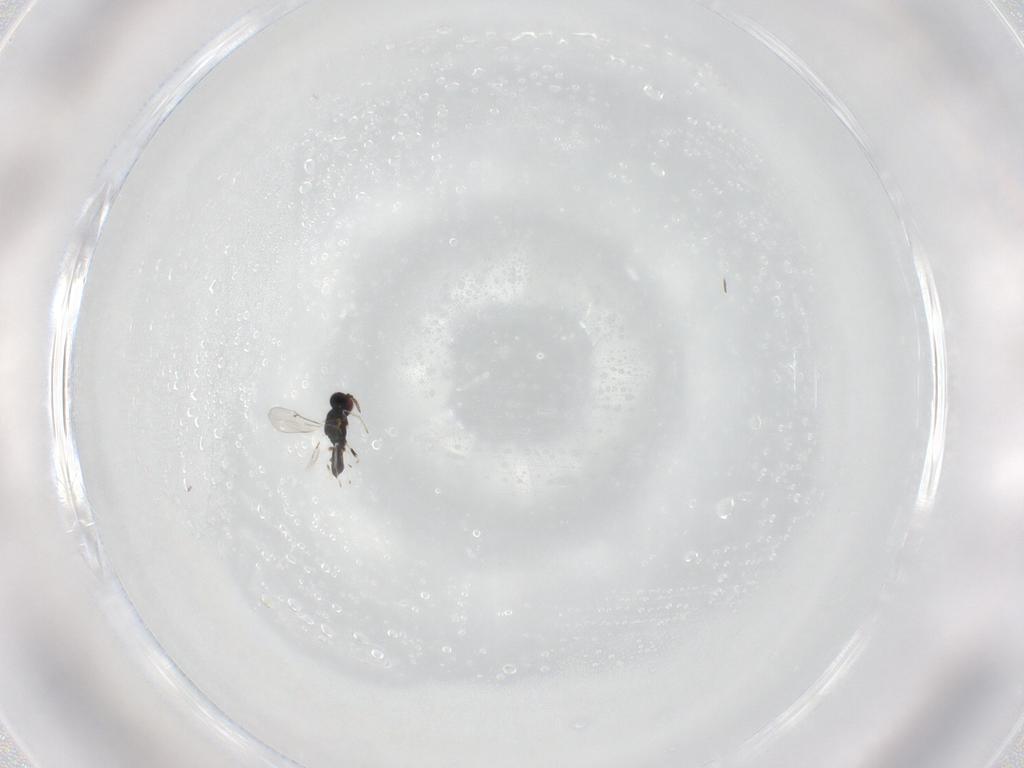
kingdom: Animalia
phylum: Arthropoda
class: Insecta
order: Hymenoptera
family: Eulophidae
